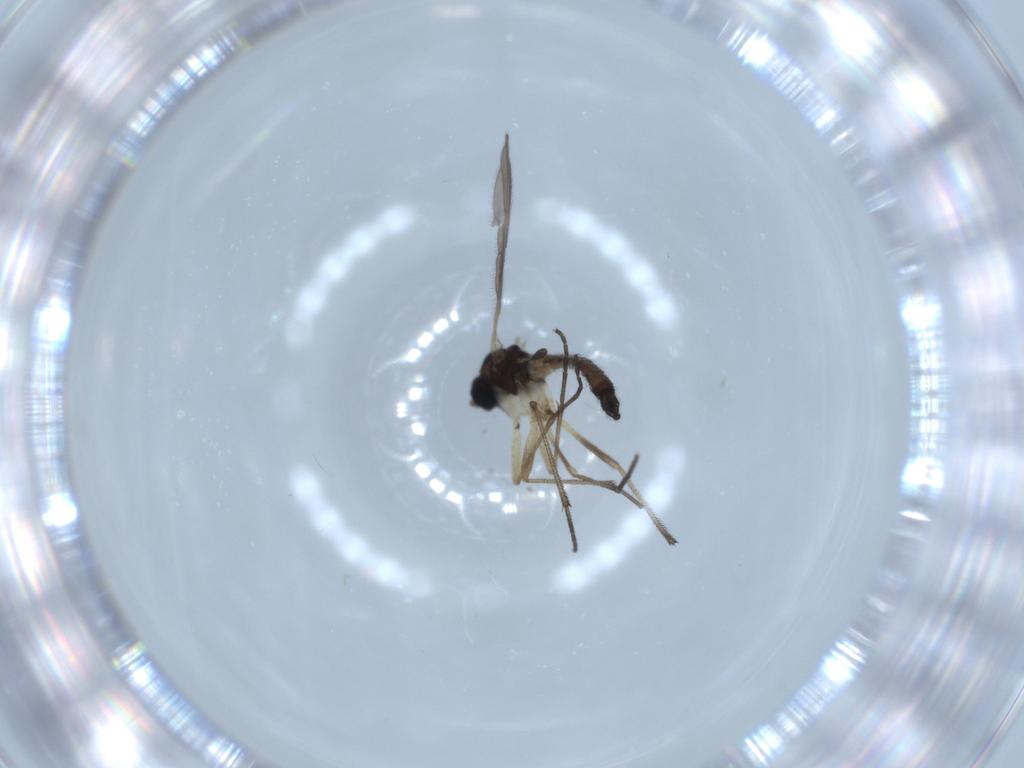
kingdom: Animalia
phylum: Arthropoda
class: Insecta
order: Diptera
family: Sciaridae
